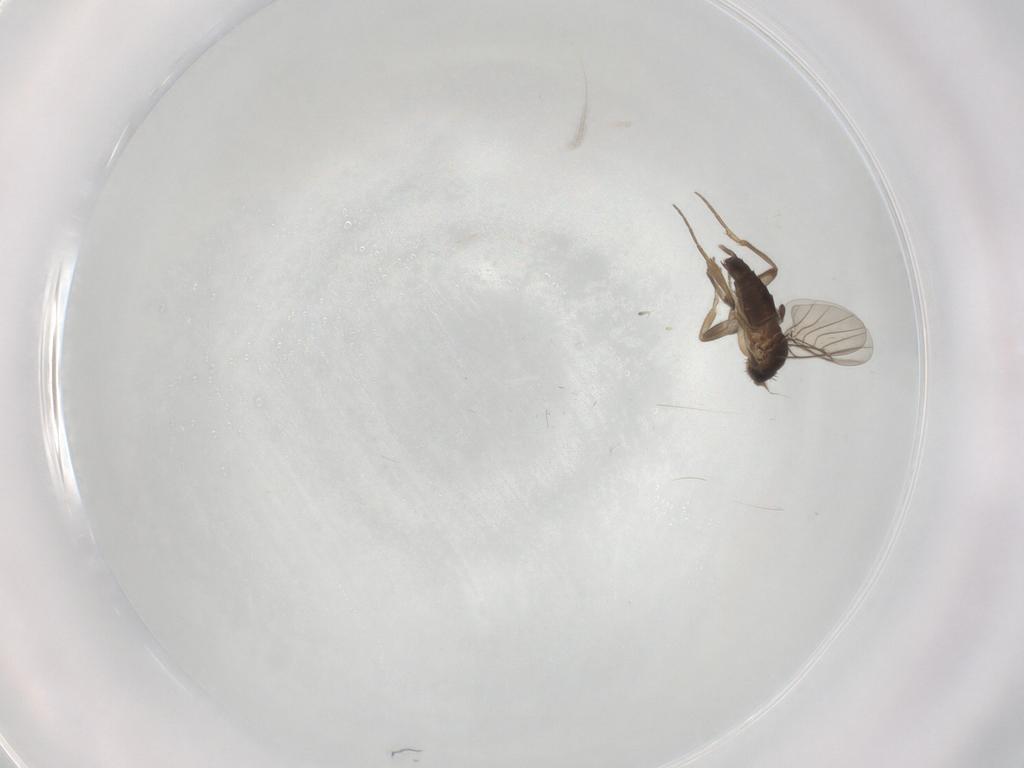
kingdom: Animalia
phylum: Arthropoda
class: Insecta
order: Diptera
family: Phoridae
